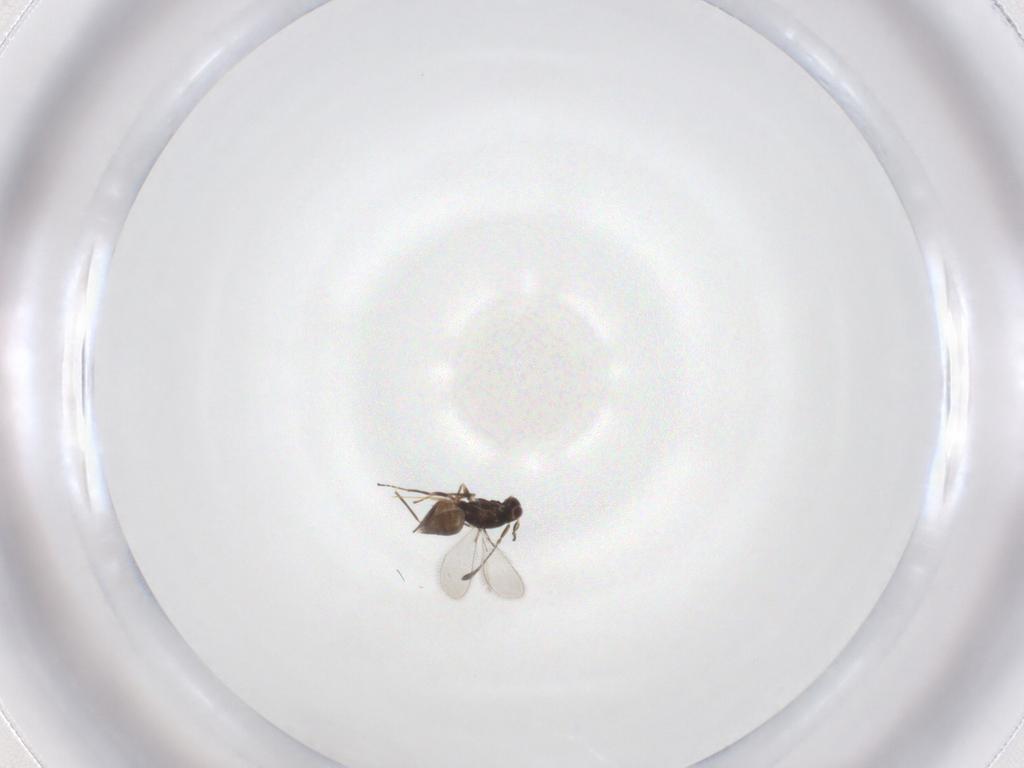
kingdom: Animalia
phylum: Arthropoda
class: Insecta
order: Hymenoptera
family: Mymaridae
